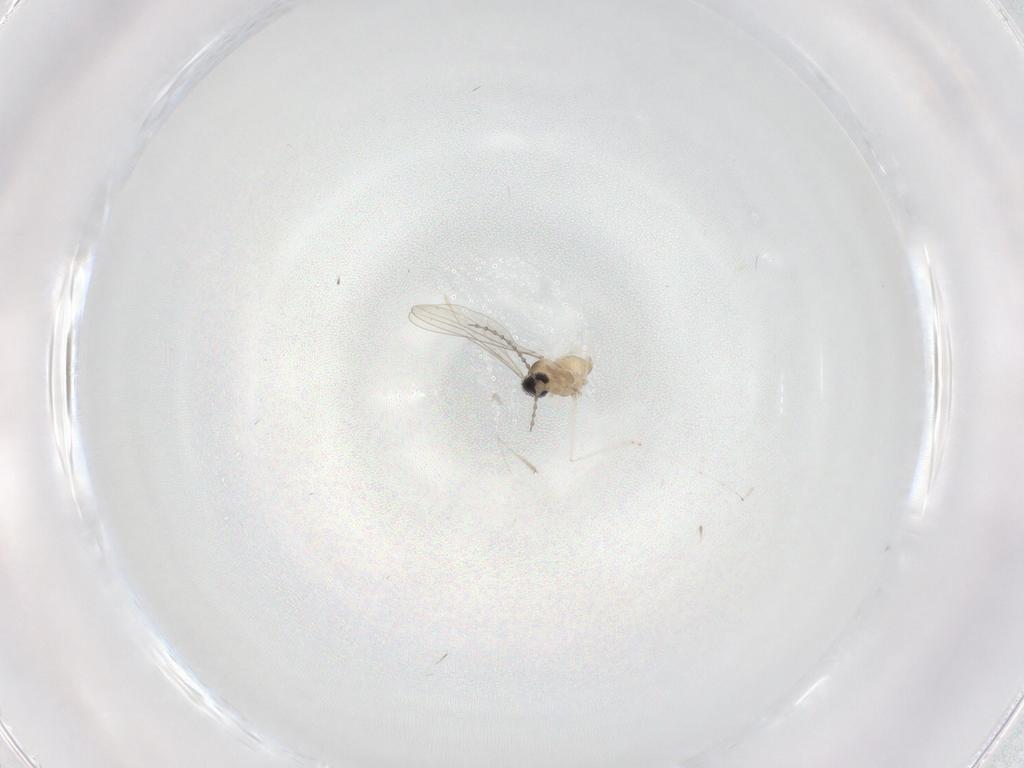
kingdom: Animalia
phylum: Arthropoda
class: Insecta
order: Diptera
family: Cecidomyiidae
